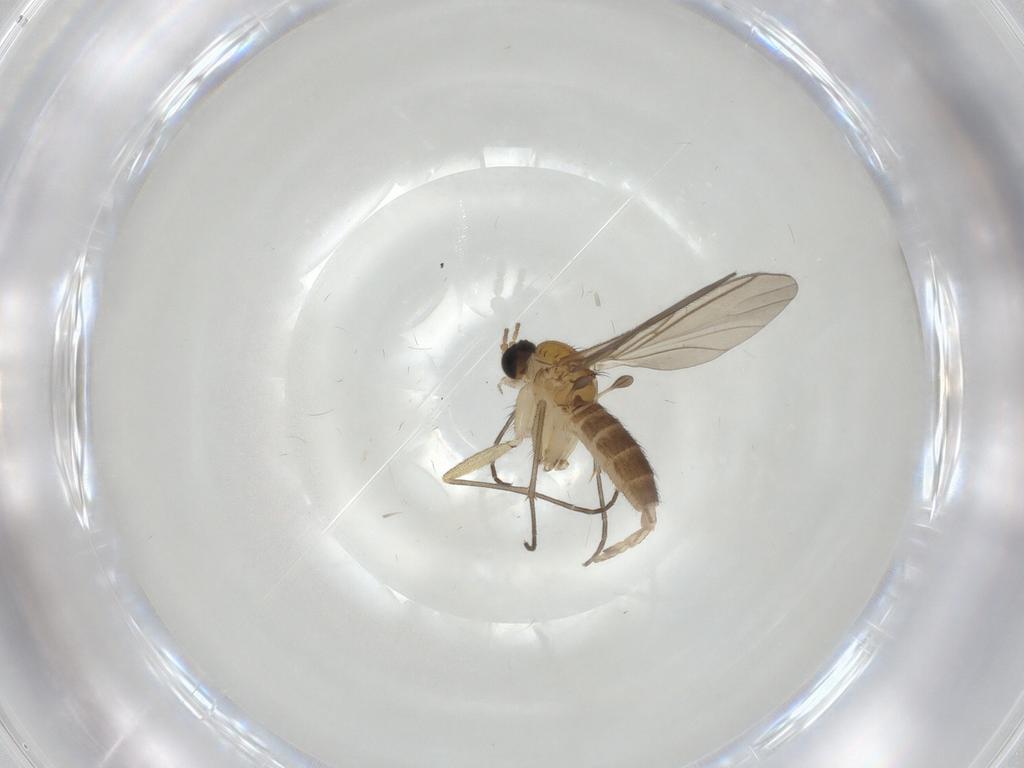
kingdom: Animalia
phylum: Arthropoda
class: Insecta
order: Diptera
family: Sciaridae
